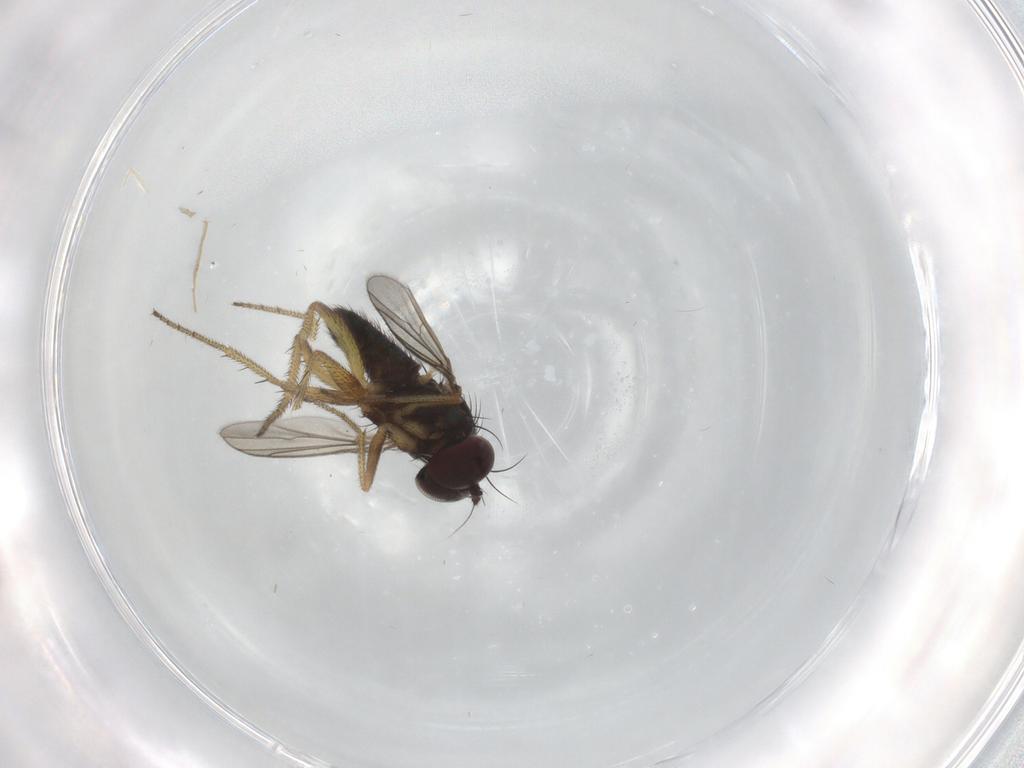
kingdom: Animalia
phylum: Arthropoda
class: Insecta
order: Diptera
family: Dolichopodidae
